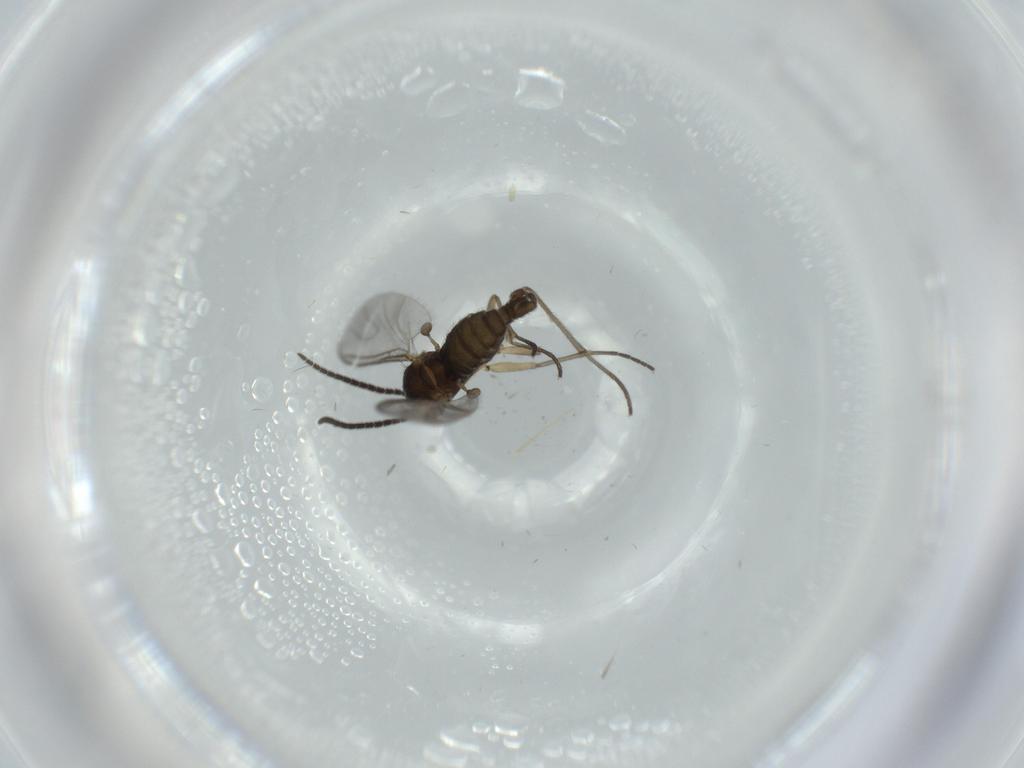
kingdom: Animalia
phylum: Arthropoda
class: Insecta
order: Diptera
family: Sciaridae
